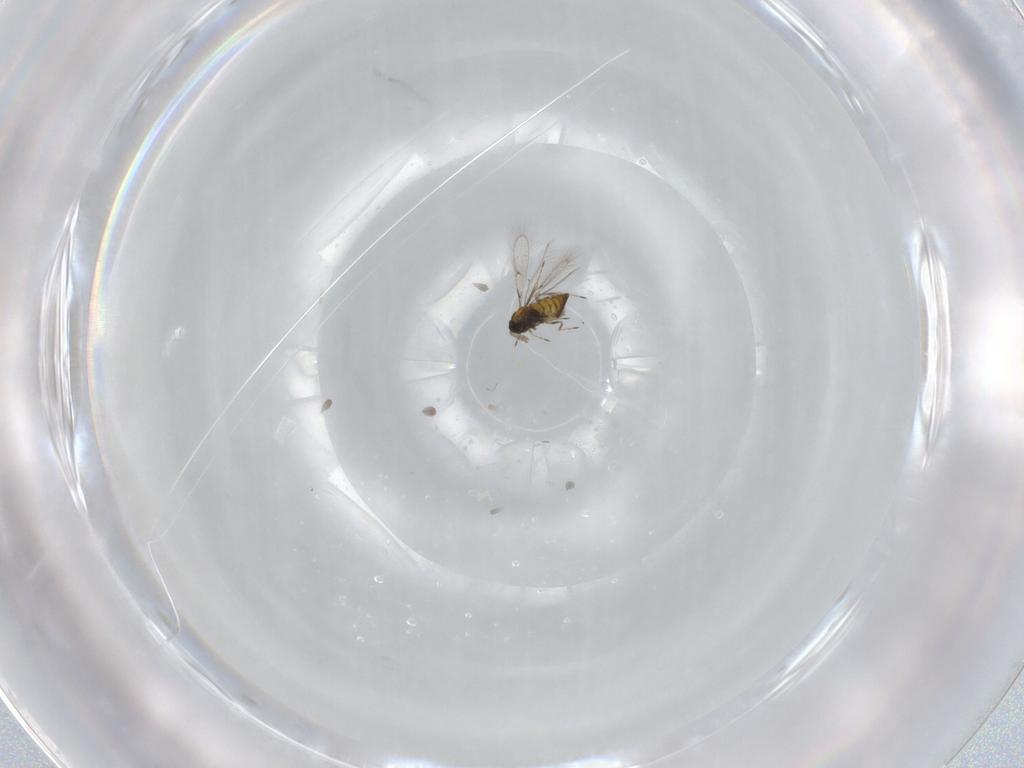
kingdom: Animalia
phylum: Arthropoda
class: Insecta
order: Hymenoptera
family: Trichogrammatidae
